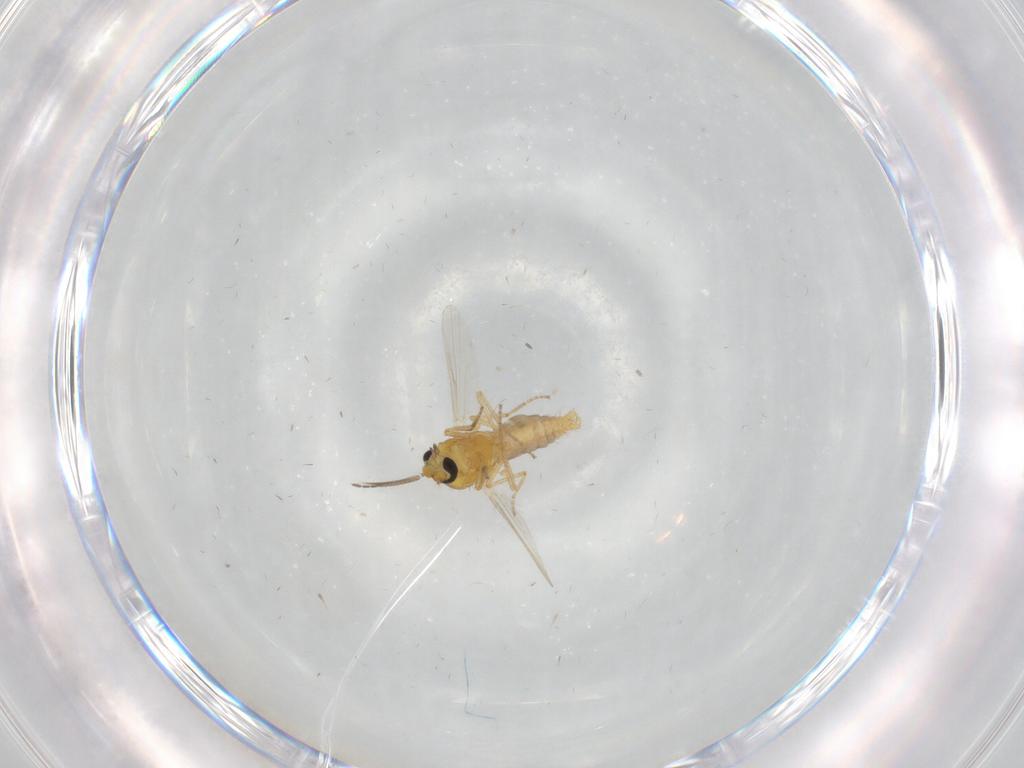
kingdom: Animalia
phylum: Arthropoda
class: Insecta
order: Diptera
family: Ceratopogonidae
